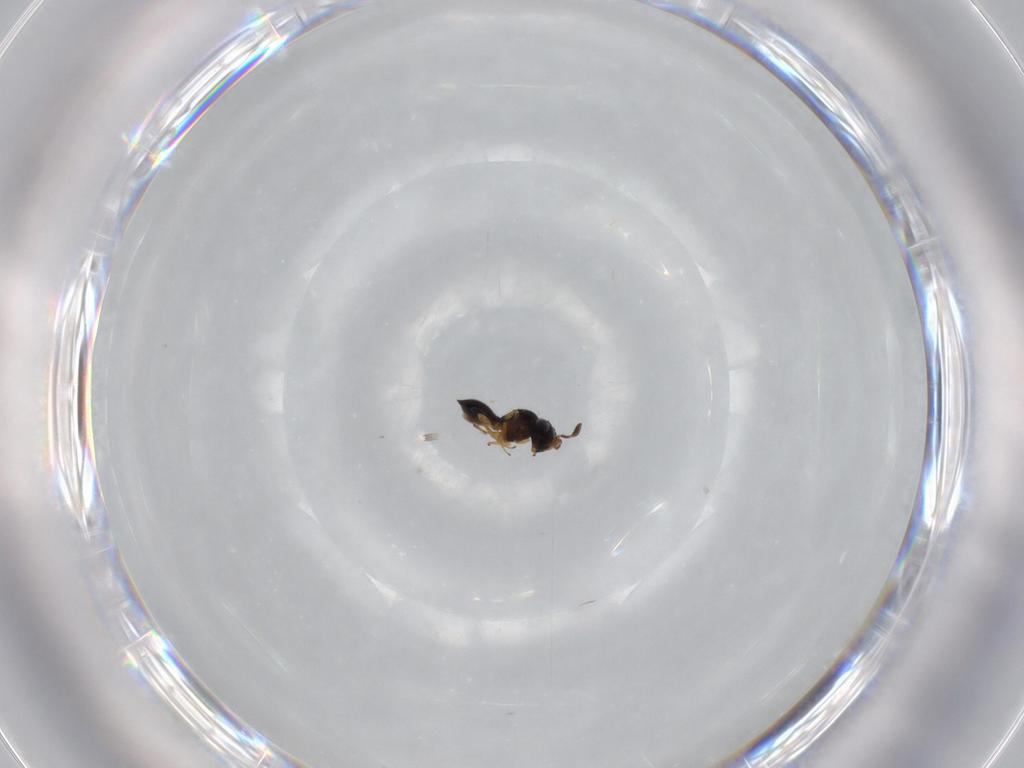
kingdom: Animalia
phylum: Arthropoda
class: Insecta
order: Hymenoptera
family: Scelionidae
